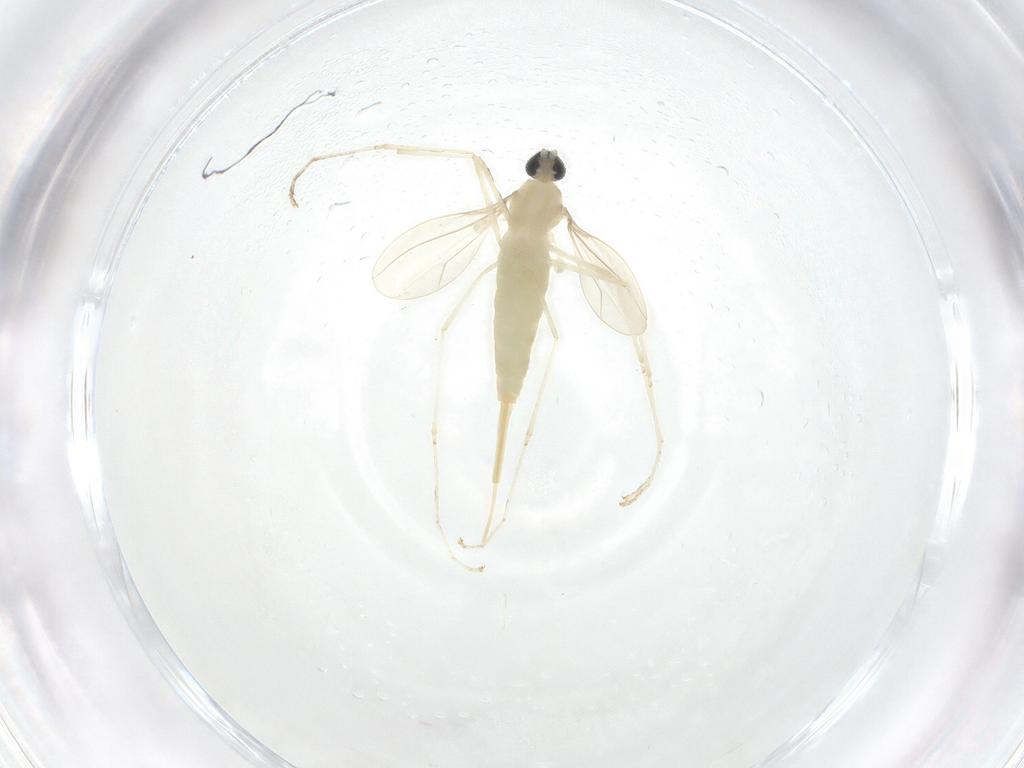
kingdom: Animalia
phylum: Arthropoda
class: Insecta
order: Diptera
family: Cecidomyiidae
